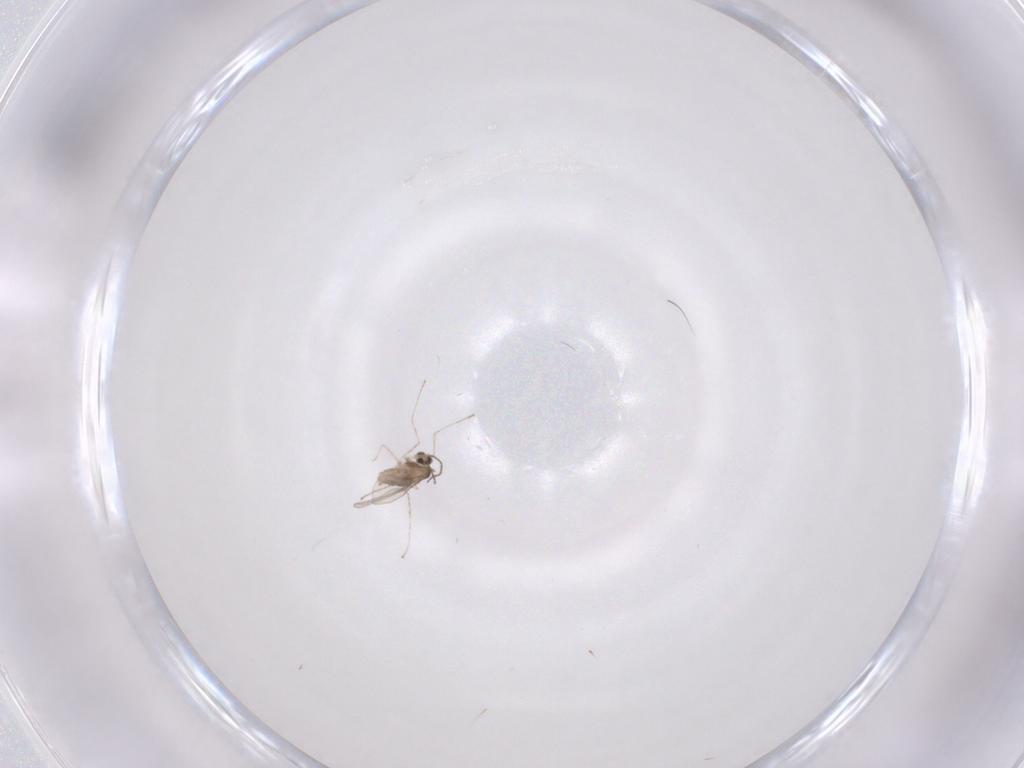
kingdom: Animalia
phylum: Arthropoda
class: Insecta
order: Diptera
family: Cecidomyiidae
